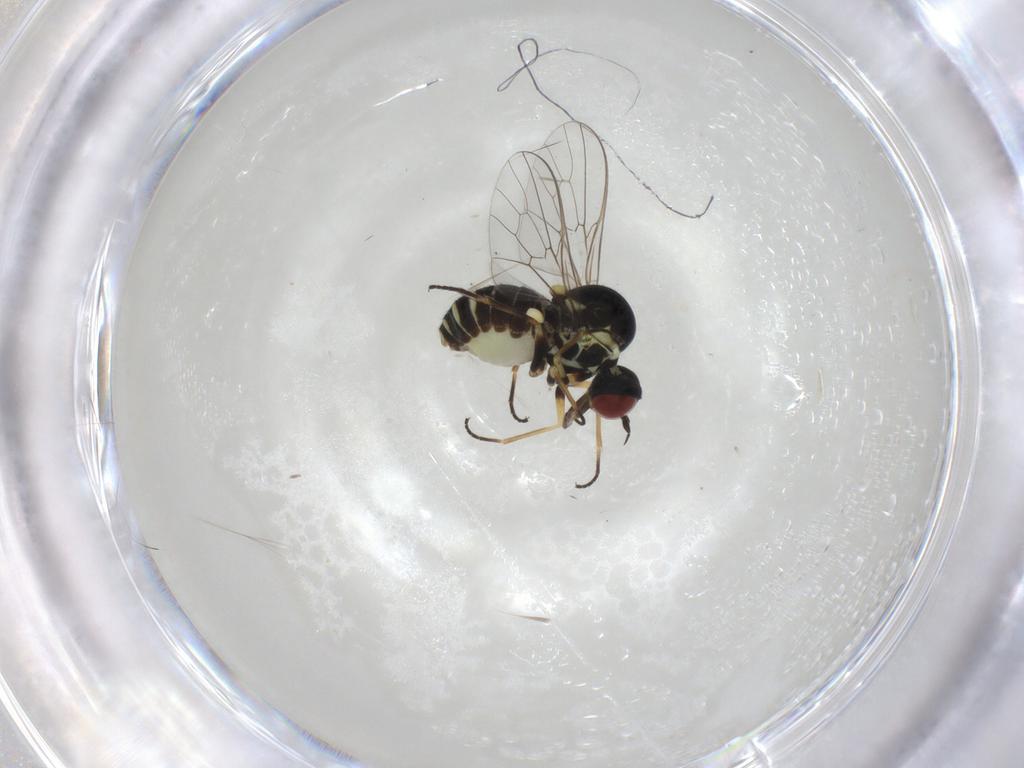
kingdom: Animalia
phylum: Arthropoda
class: Insecta
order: Diptera
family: Bombyliidae
